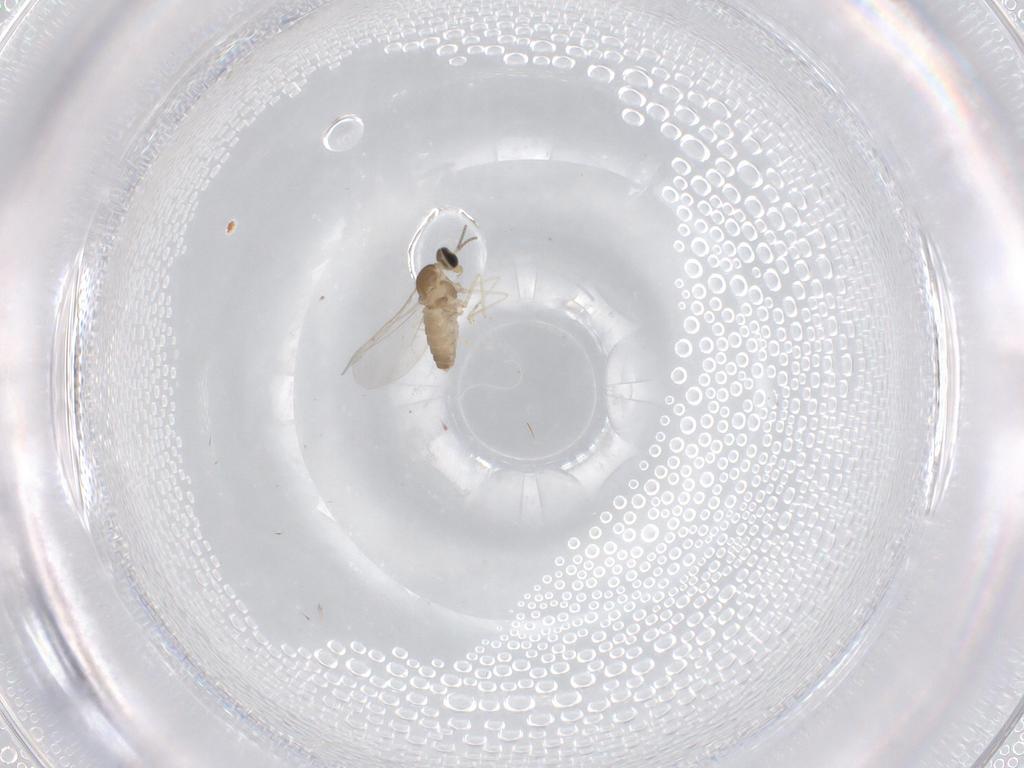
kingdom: Animalia
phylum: Arthropoda
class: Insecta
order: Diptera
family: Cecidomyiidae
